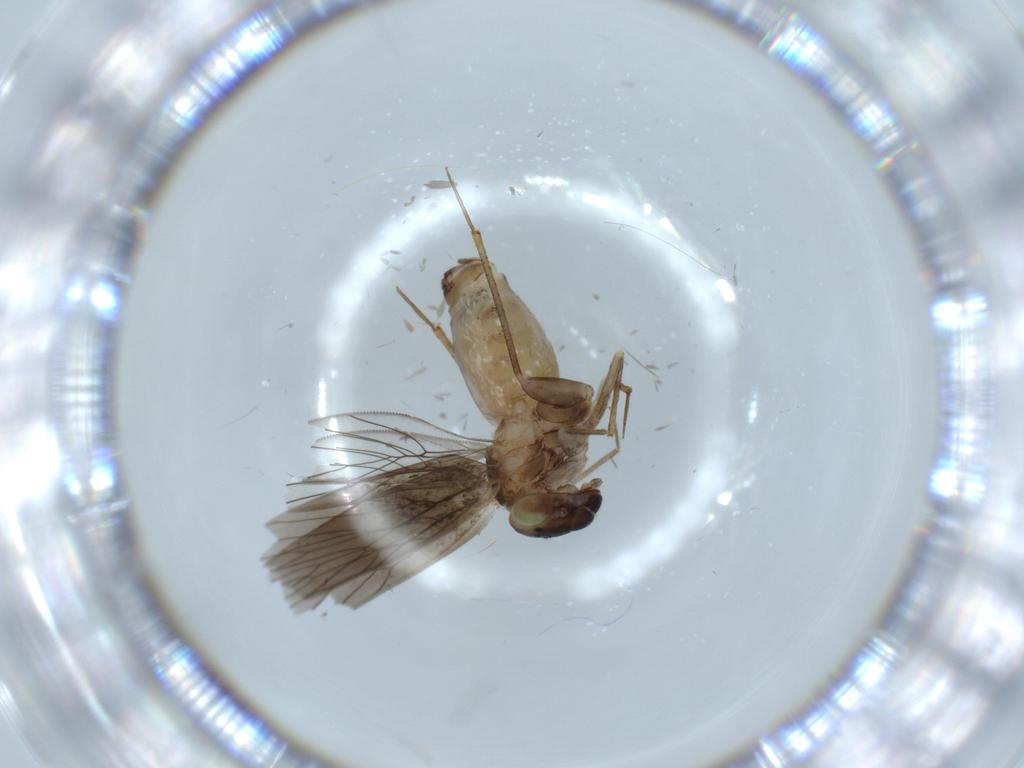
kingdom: Animalia
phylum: Arthropoda
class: Insecta
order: Psocodea
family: Lepidopsocidae
